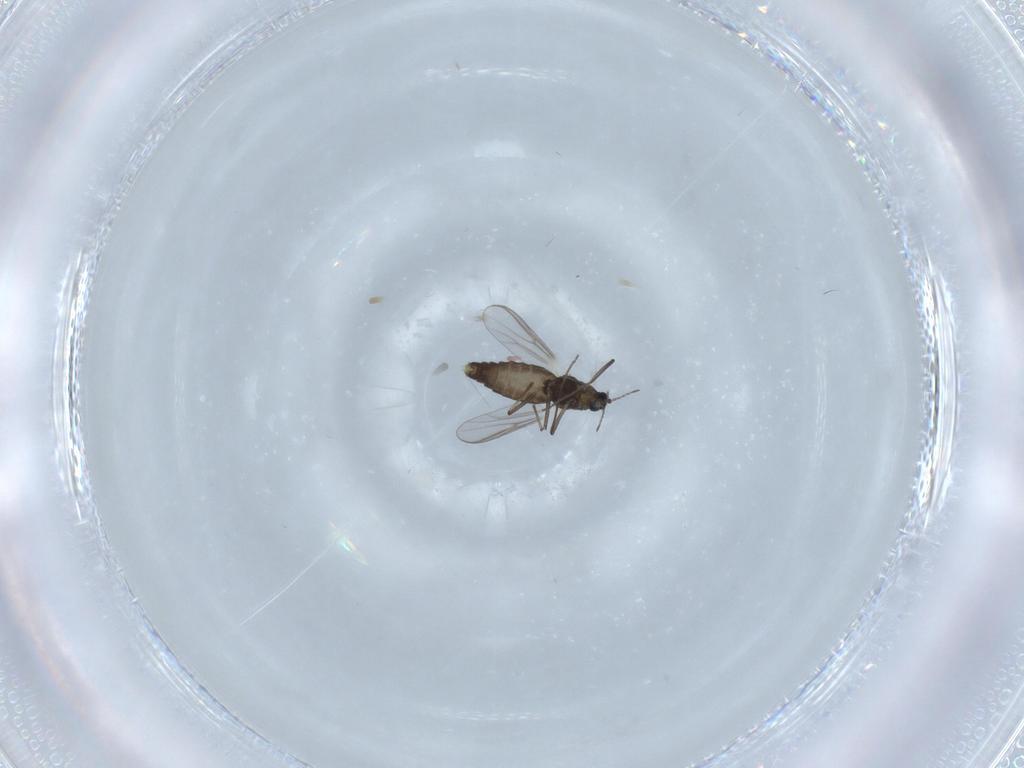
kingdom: Animalia
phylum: Arthropoda
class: Insecta
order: Diptera
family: Chironomidae
